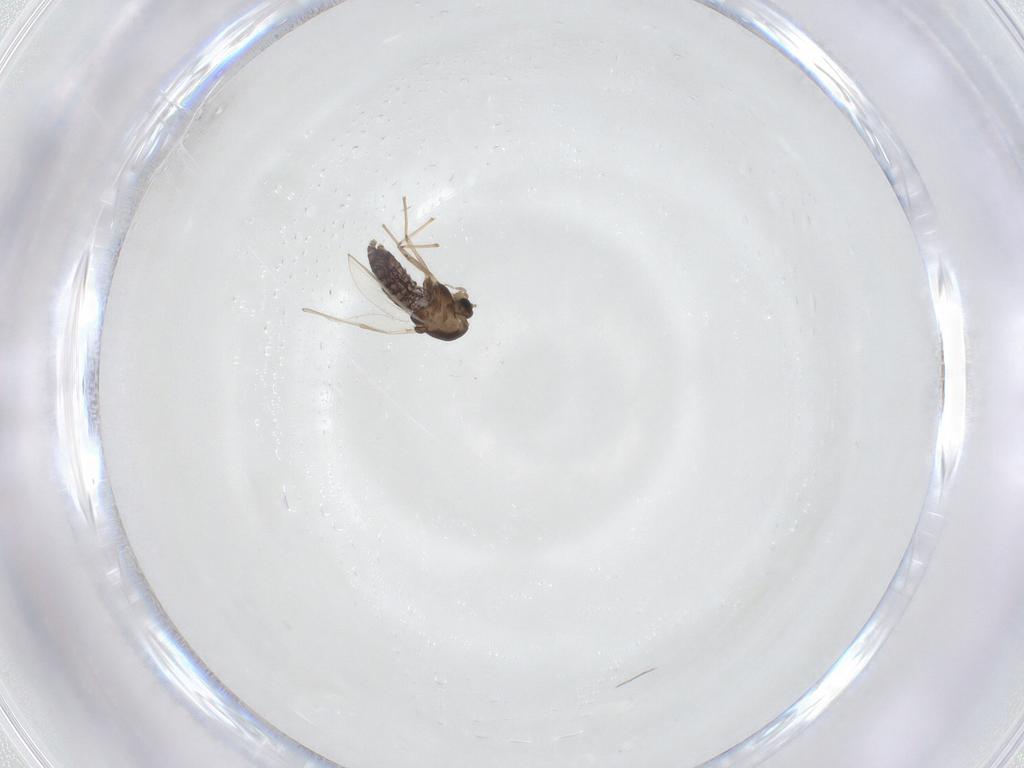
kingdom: Animalia
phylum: Arthropoda
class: Insecta
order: Diptera
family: Chironomidae
